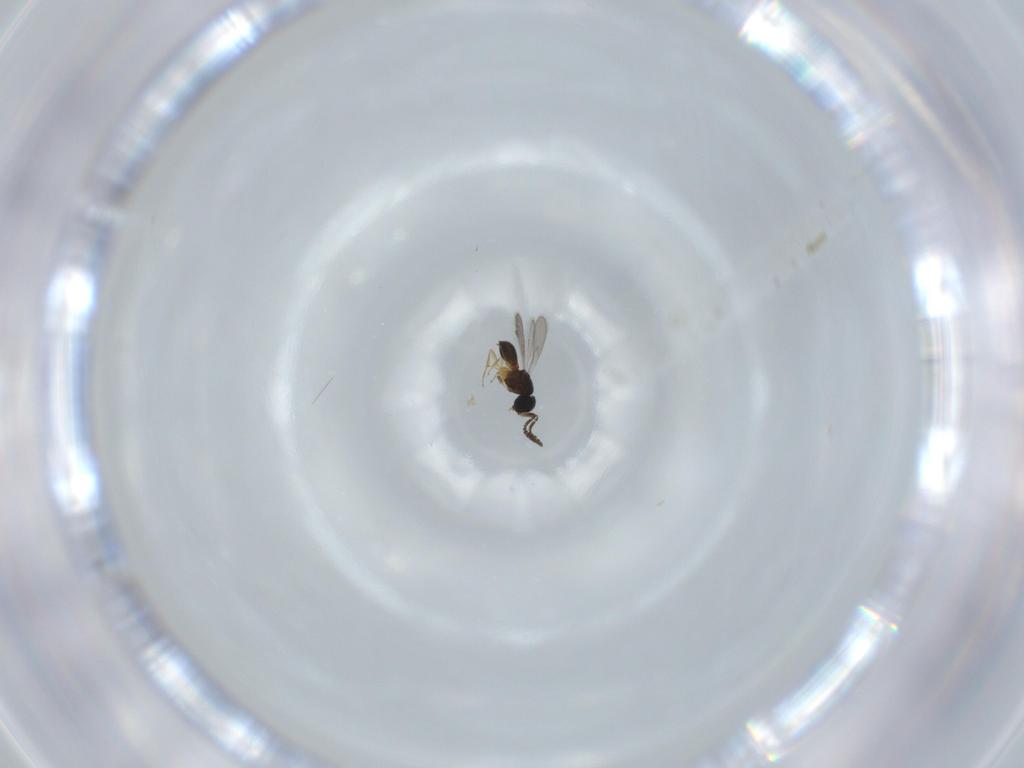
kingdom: Animalia
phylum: Arthropoda
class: Insecta
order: Hymenoptera
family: Scelionidae
